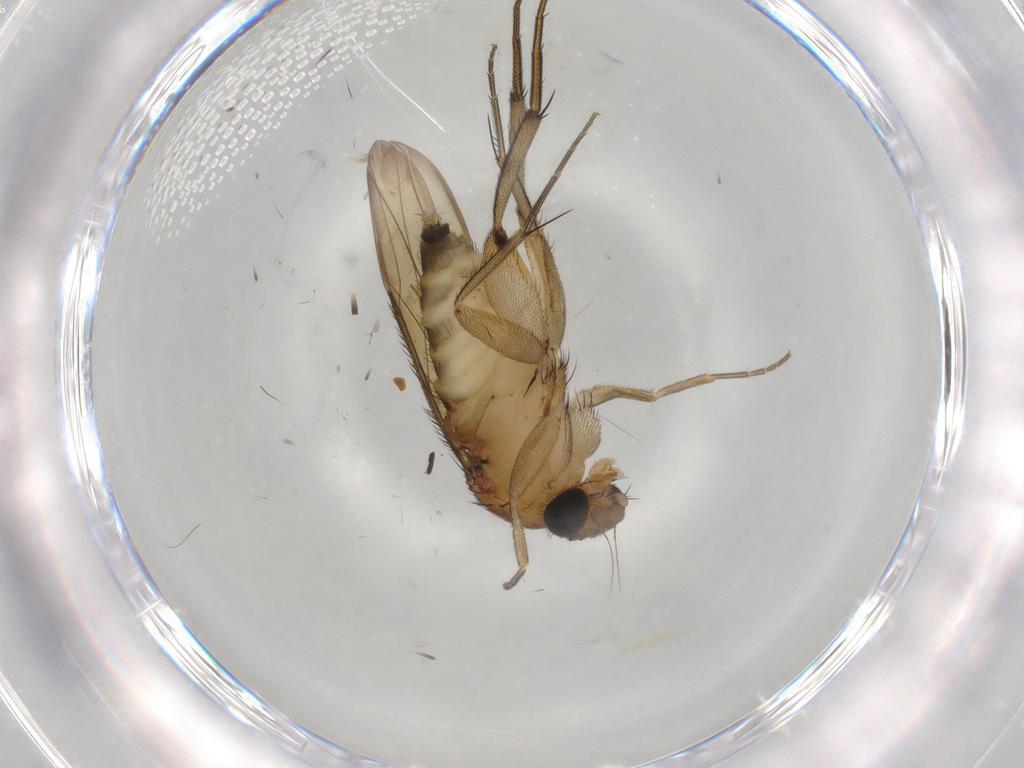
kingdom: Animalia
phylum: Arthropoda
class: Insecta
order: Diptera
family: Phoridae
